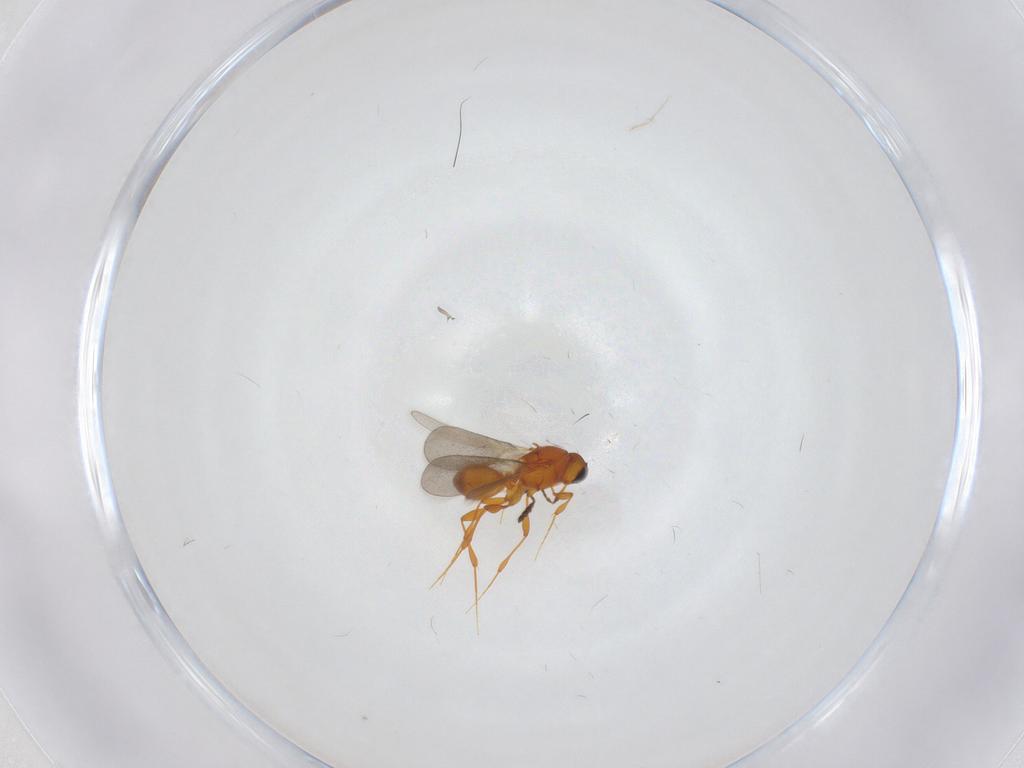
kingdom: Animalia
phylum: Arthropoda
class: Insecta
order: Hymenoptera
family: Platygastridae
